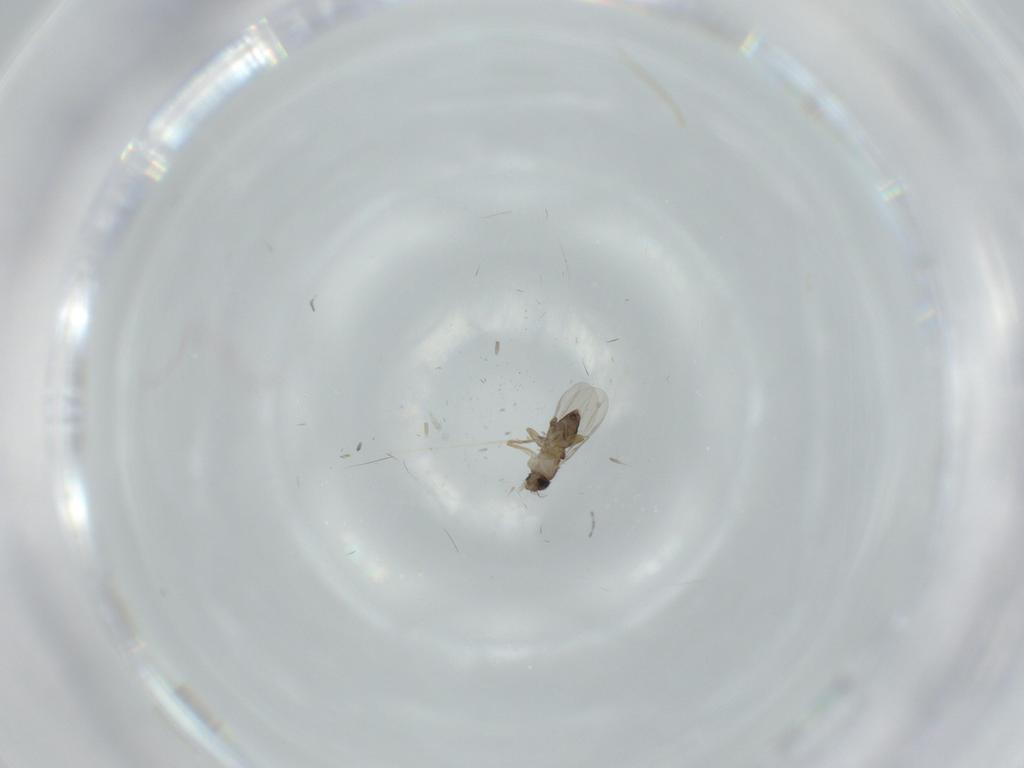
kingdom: Animalia
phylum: Arthropoda
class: Insecta
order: Diptera
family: Phoridae
